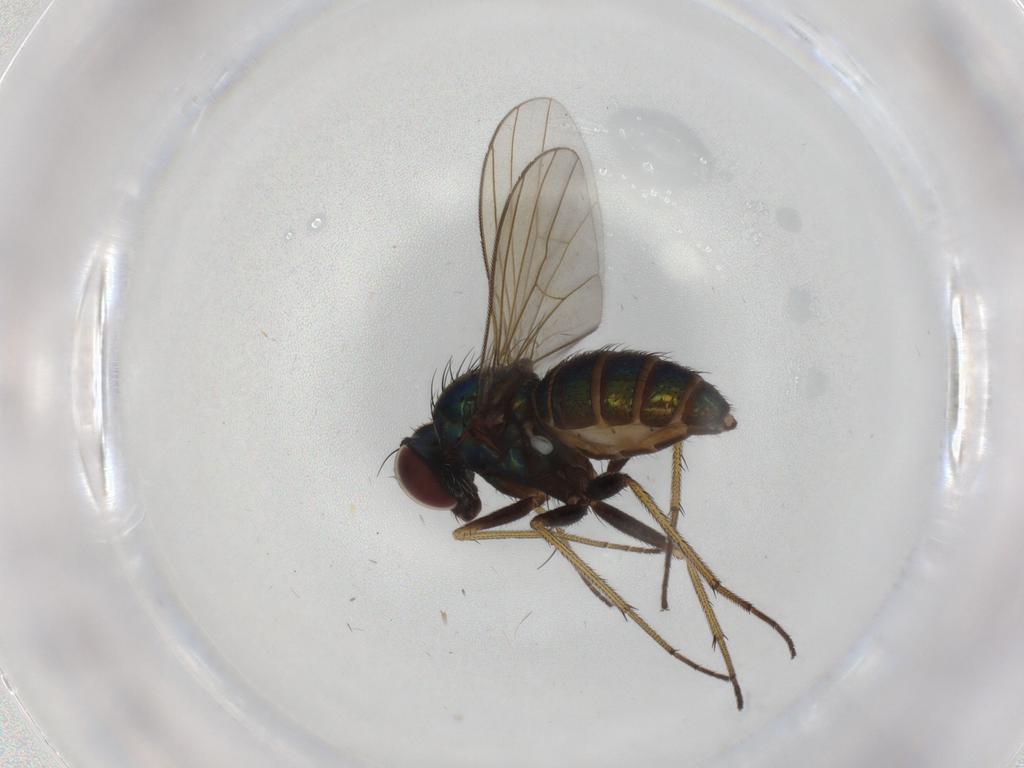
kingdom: Animalia
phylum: Arthropoda
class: Insecta
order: Diptera
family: Dolichopodidae
